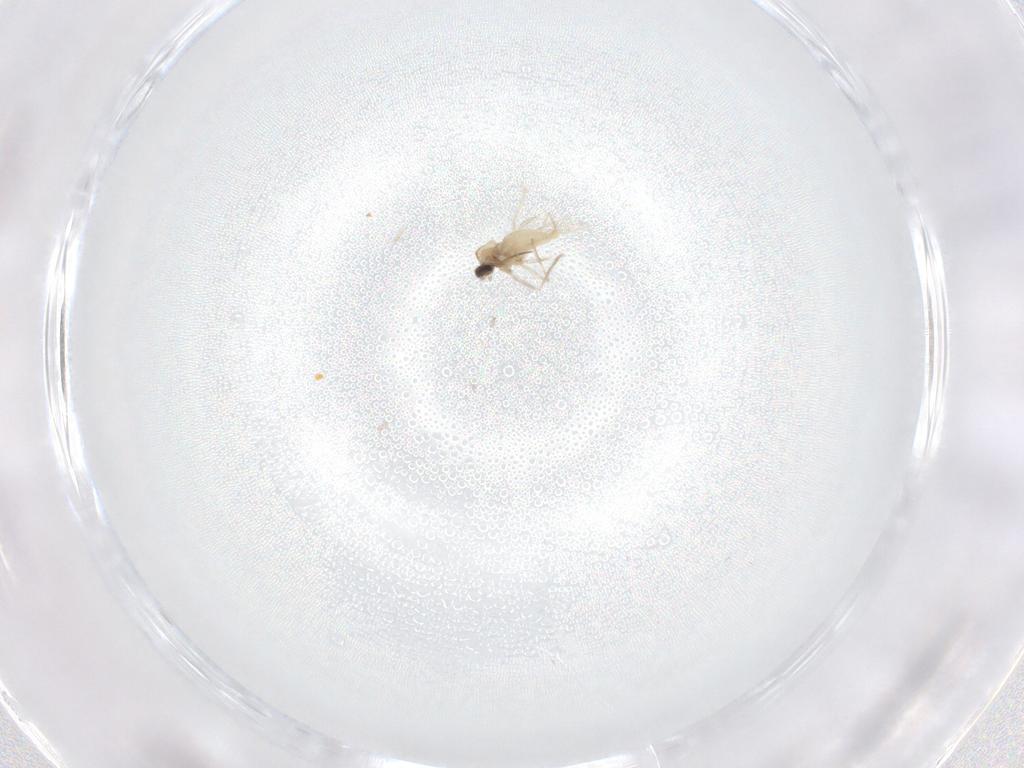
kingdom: Animalia
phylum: Arthropoda
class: Insecta
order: Diptera
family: Cecidomyiidae
